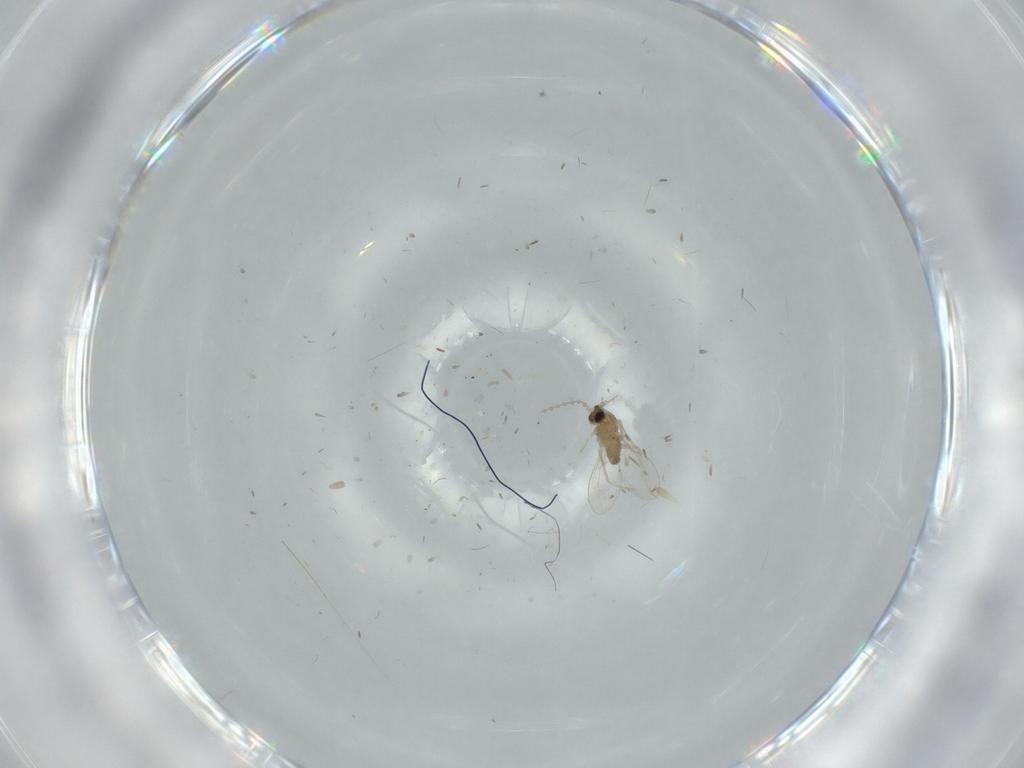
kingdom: Animalia
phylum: Arthropoda
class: Insecta
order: Diptera
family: Cecidomyiidae
